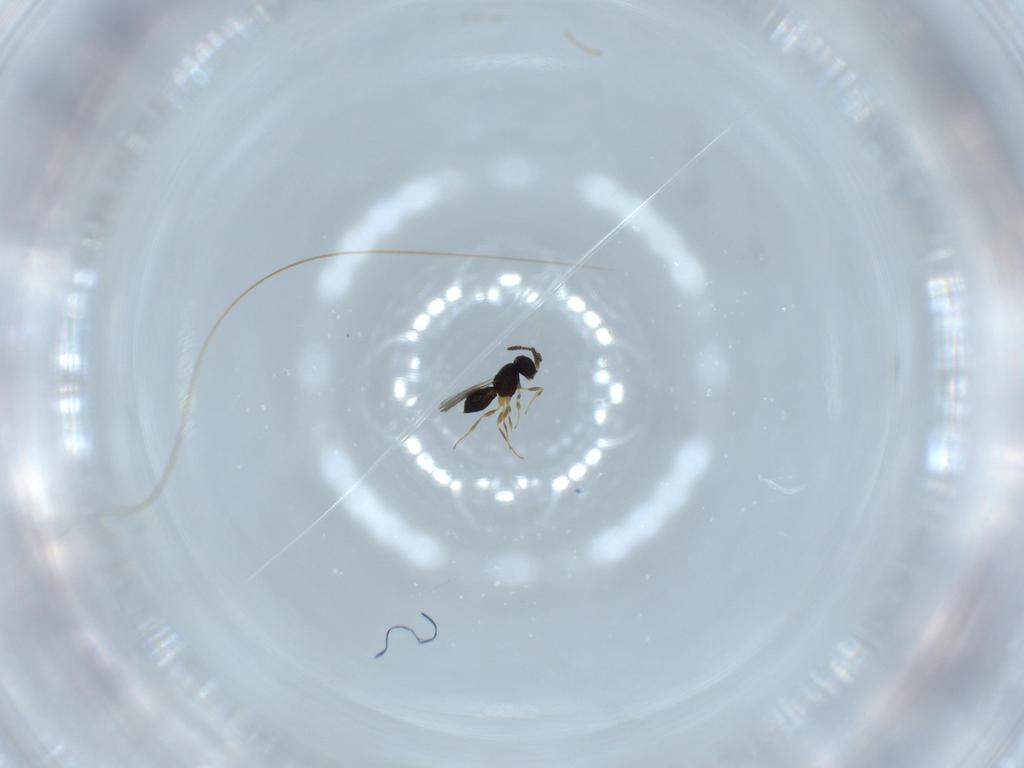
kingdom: Animalia
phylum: Arthropoda
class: Insecta
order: Hymenoptera
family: Scelionidae
